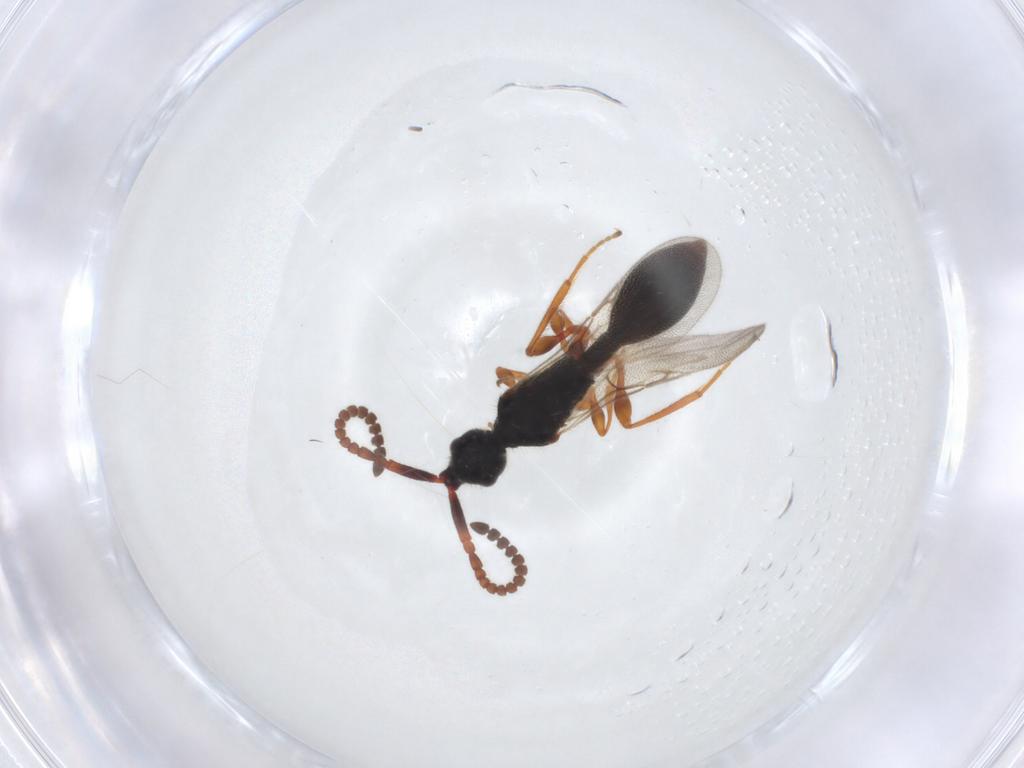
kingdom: Animalia
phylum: Arthropoda
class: Insecta
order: Hymenoptera
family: Diapriidae
